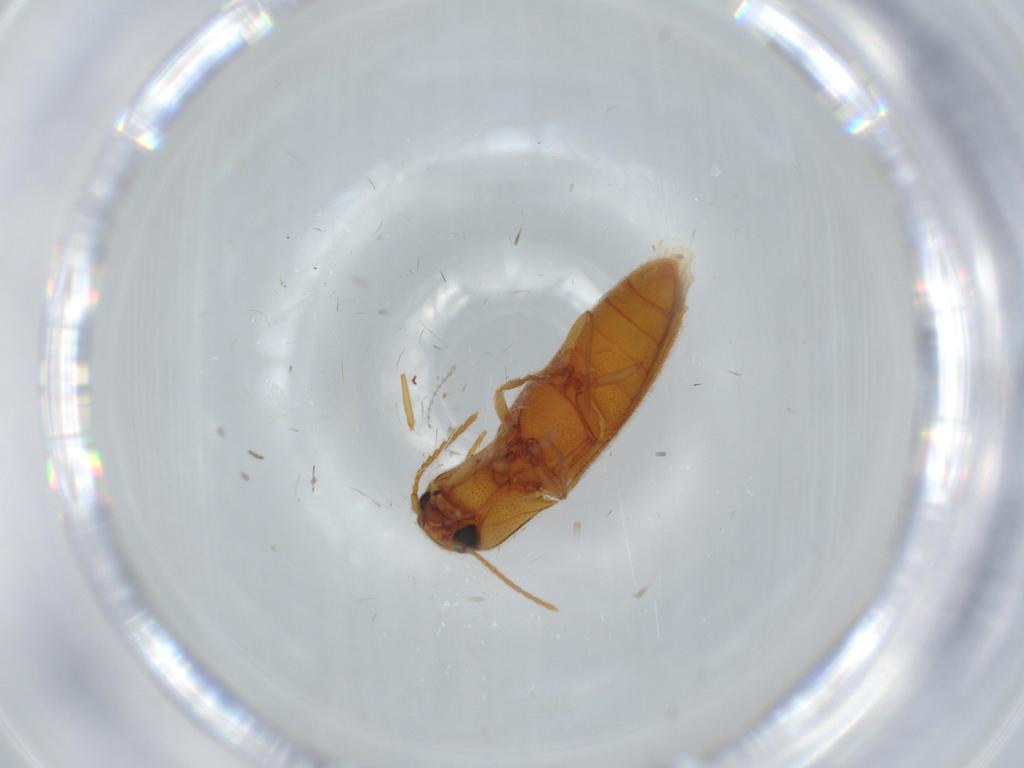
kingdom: Animalia
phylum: Arthropoda
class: Insecta
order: Coleoptera
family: Elateridae
